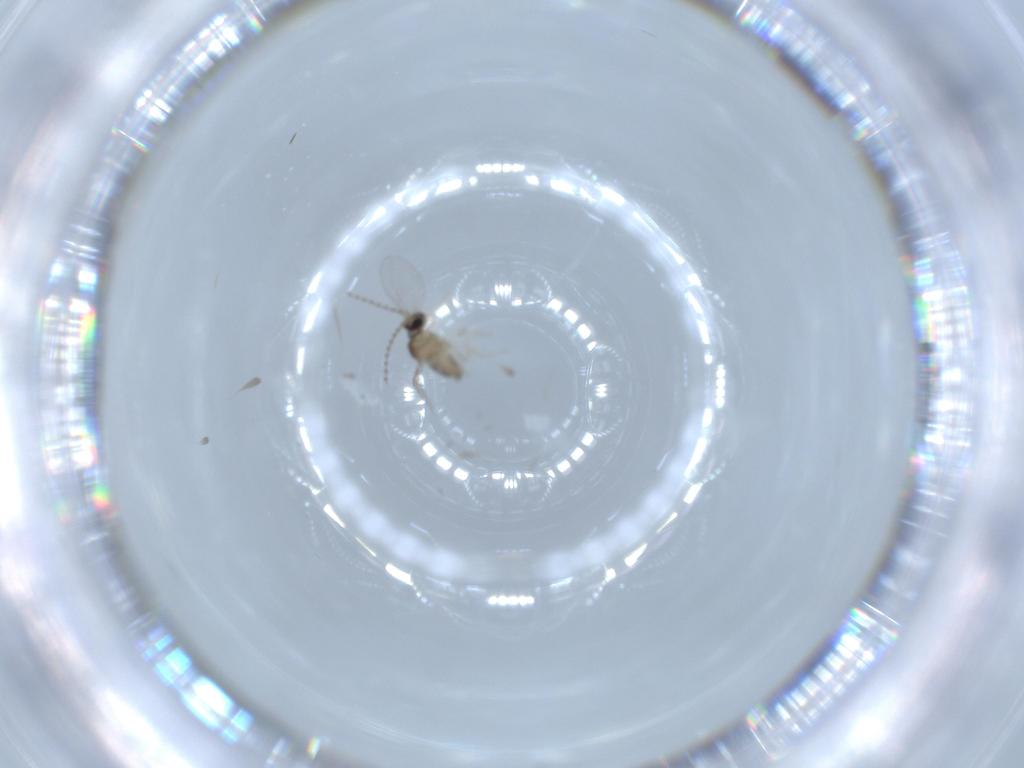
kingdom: Animalia
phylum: Arthropoda
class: Insecta
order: Diptera
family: Cecidomyiidae
